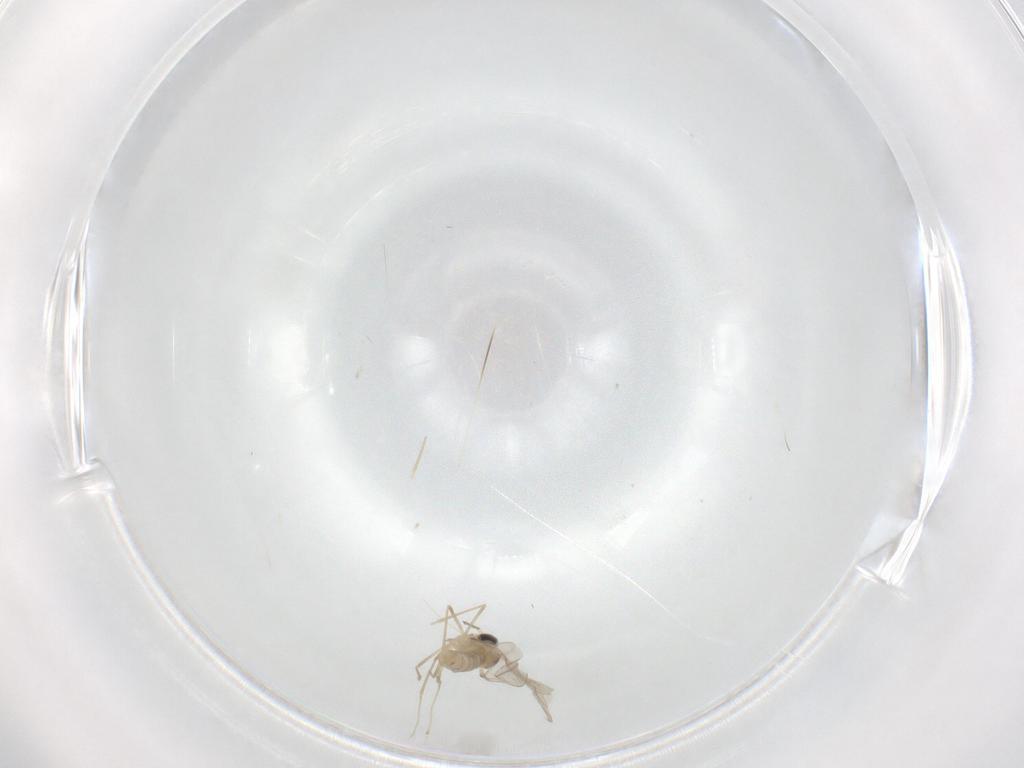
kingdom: Animalia
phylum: Arthropoda
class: Insecta
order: Diptera
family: Cecidomyiidae
